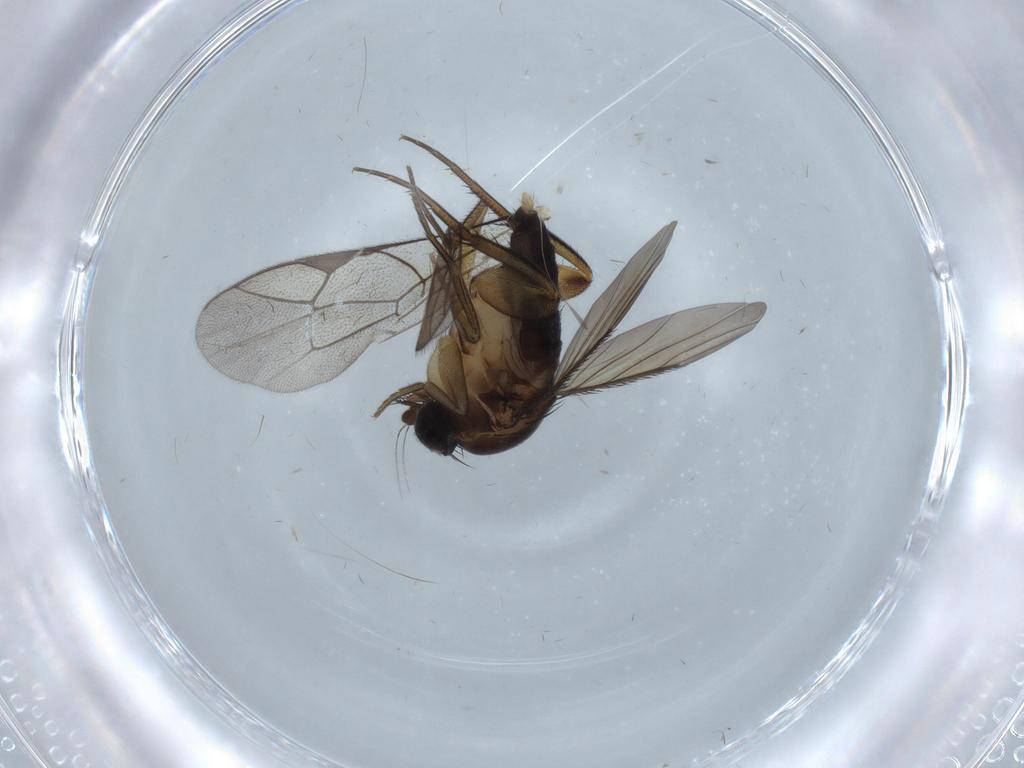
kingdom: Animalia
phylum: Arthropoda
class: Insecta
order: Diptera
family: Phoridae
